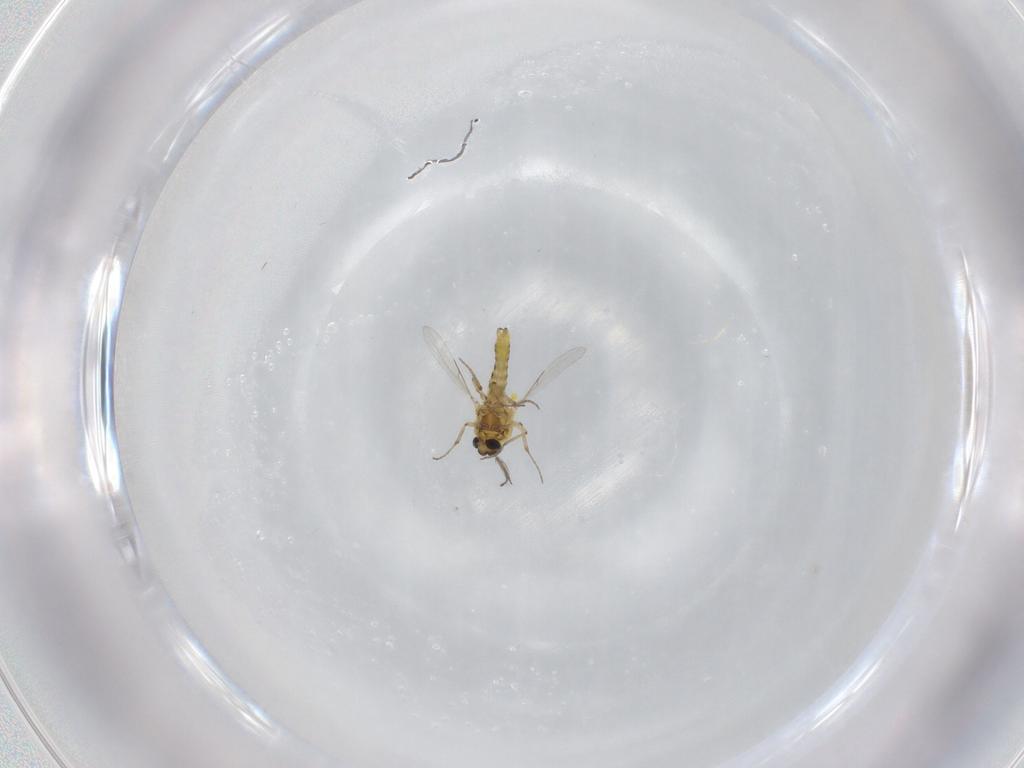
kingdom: Animalia
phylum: Arthropoda
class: Insecta
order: Diptera
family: Ceratopogonidae
